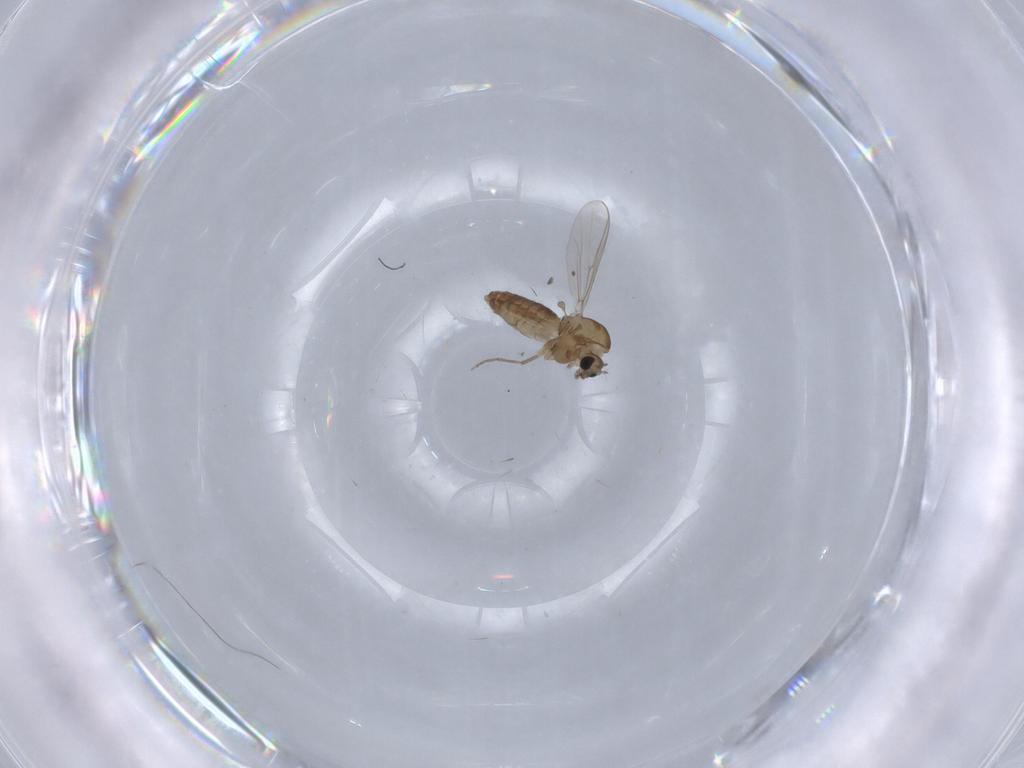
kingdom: Animalia
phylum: Arthropoda
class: Insecta
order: Diptera
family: Chironomidae
